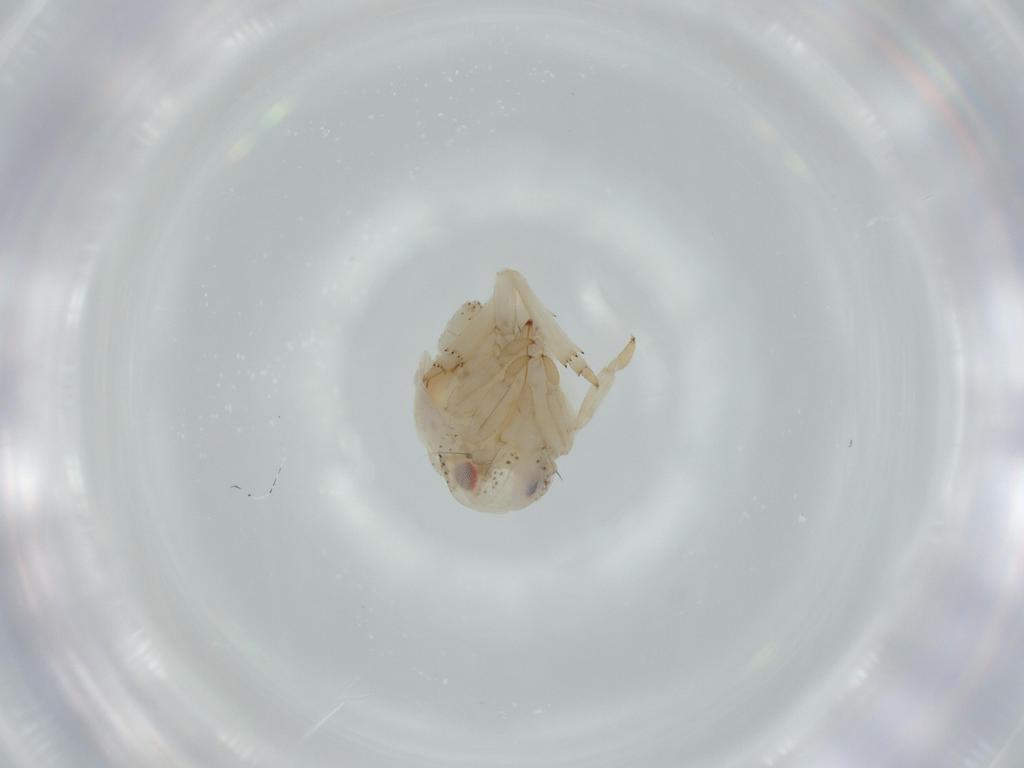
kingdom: Animalia
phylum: Arthropoda
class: Insecta
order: Hemiptera
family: Acanaloniidae
